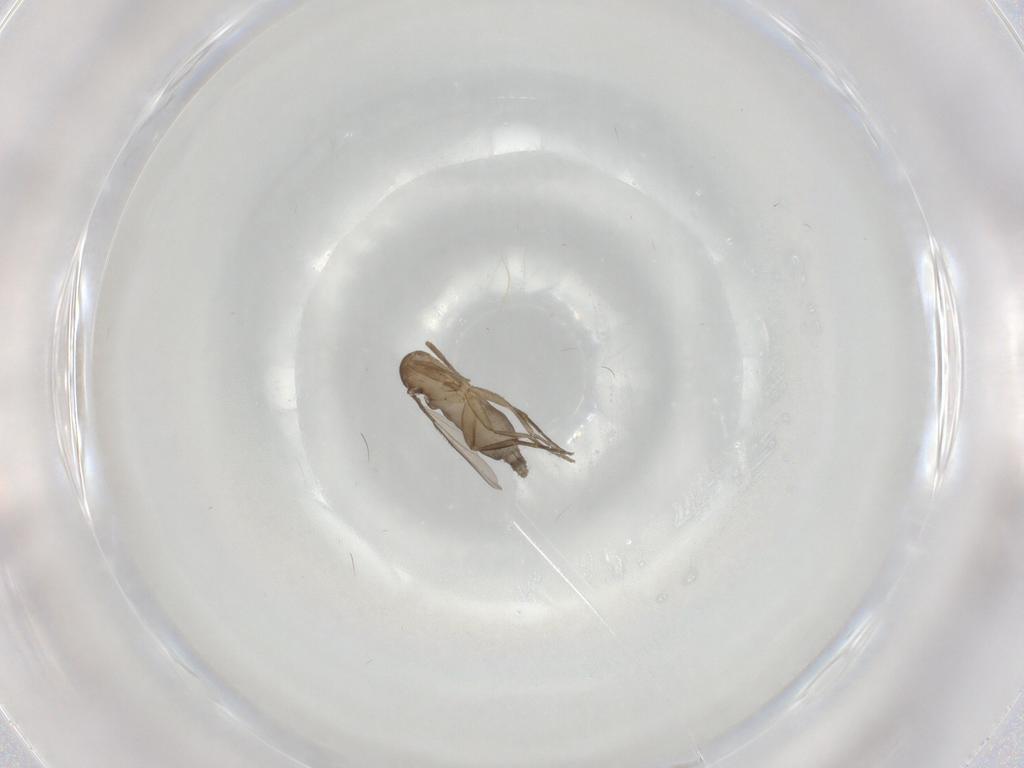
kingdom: Animalia
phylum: Arthropoda
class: Insecta
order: Diptera
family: Phoridae
